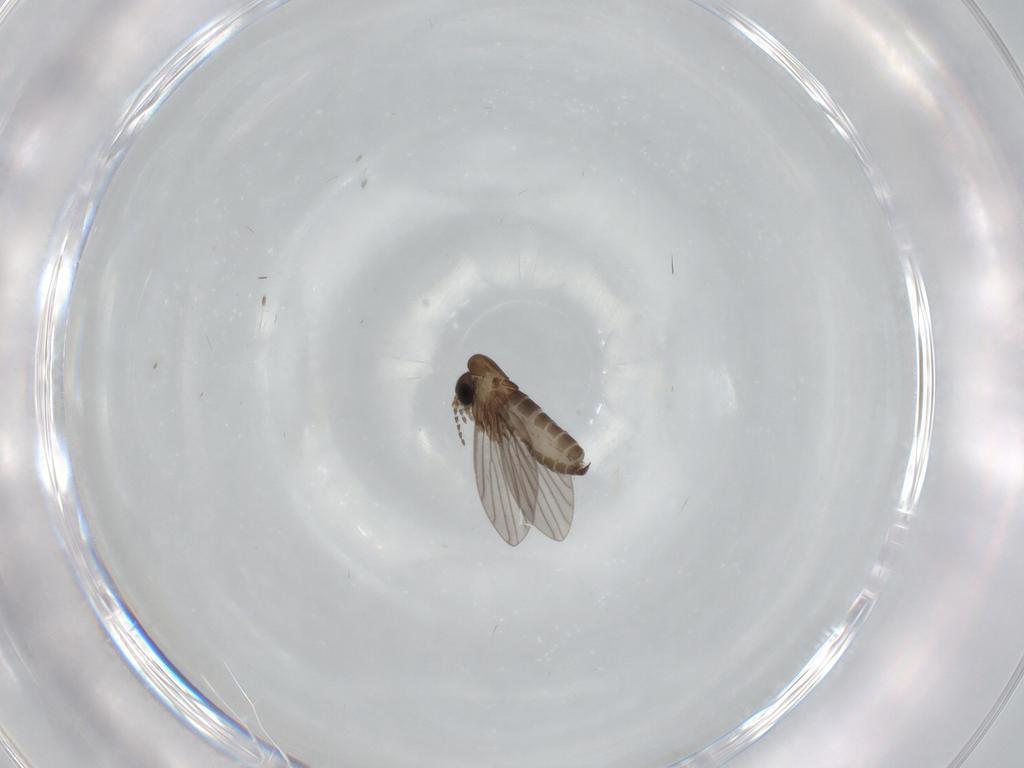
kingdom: Animalia
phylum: Arthropoda
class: Insecta
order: Diptera
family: Psychodidae
